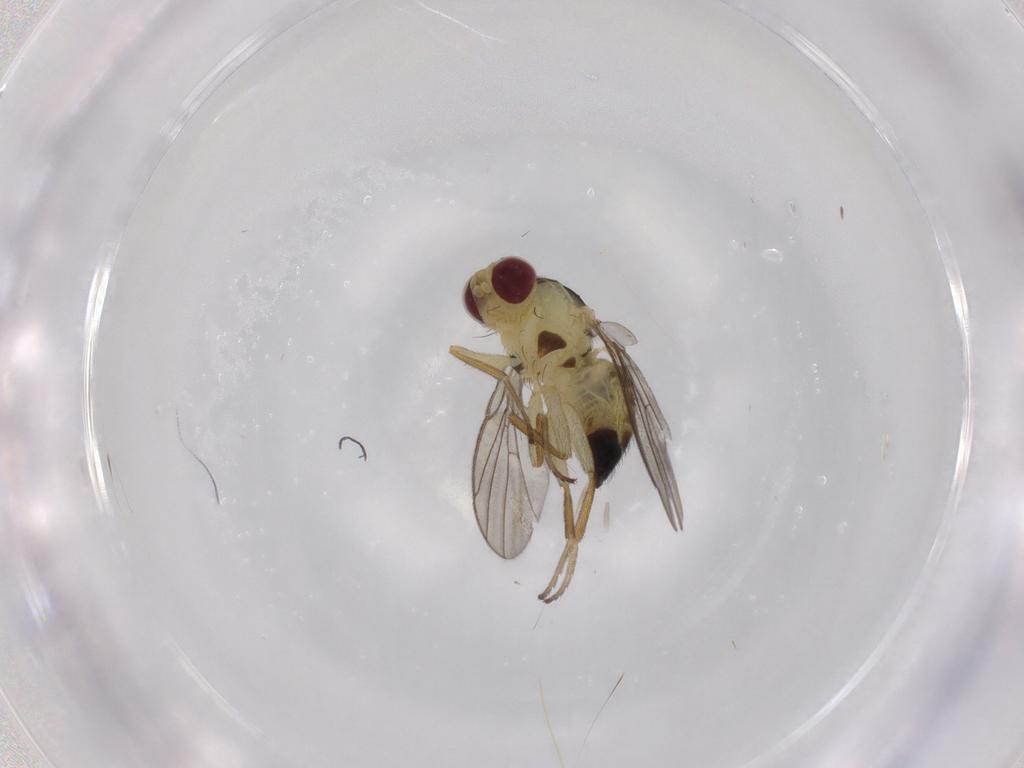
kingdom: Animalia
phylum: Arthropoda
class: Insecta
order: Diptera
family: Agromyzidae
